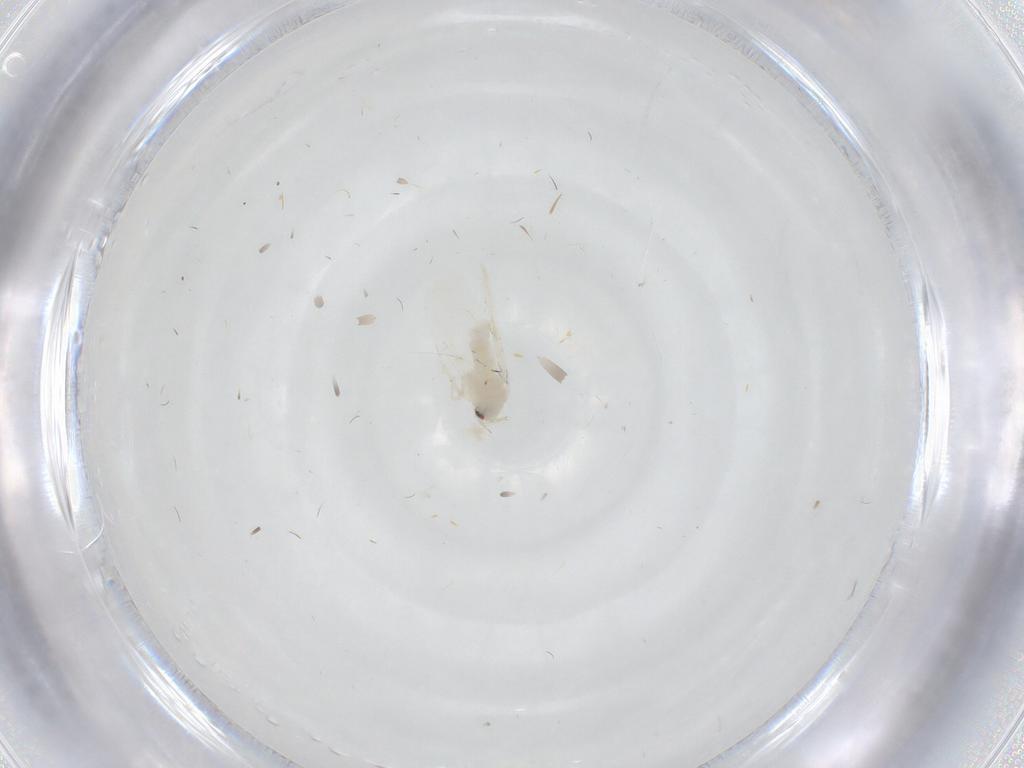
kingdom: Animalia
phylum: Arthropoda
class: Insecta
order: Hemiptera
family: Aleyrodidae
